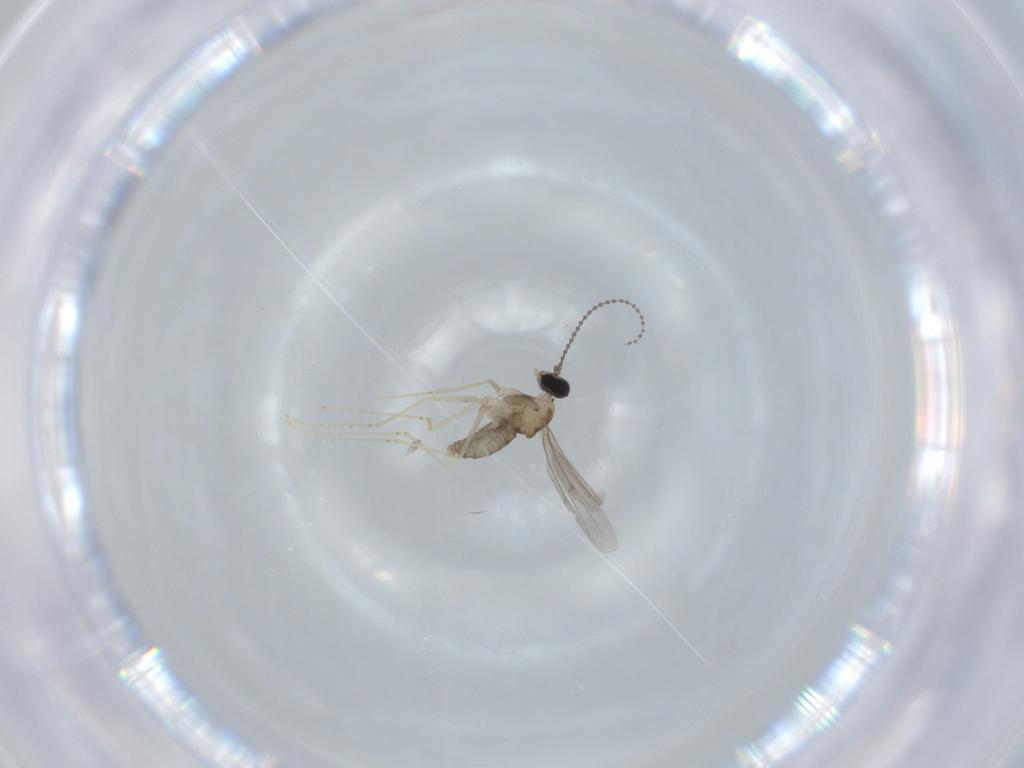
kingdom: Animalia
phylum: Arthropoda
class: Insecta
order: Diptera
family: Cecidomyiidae
